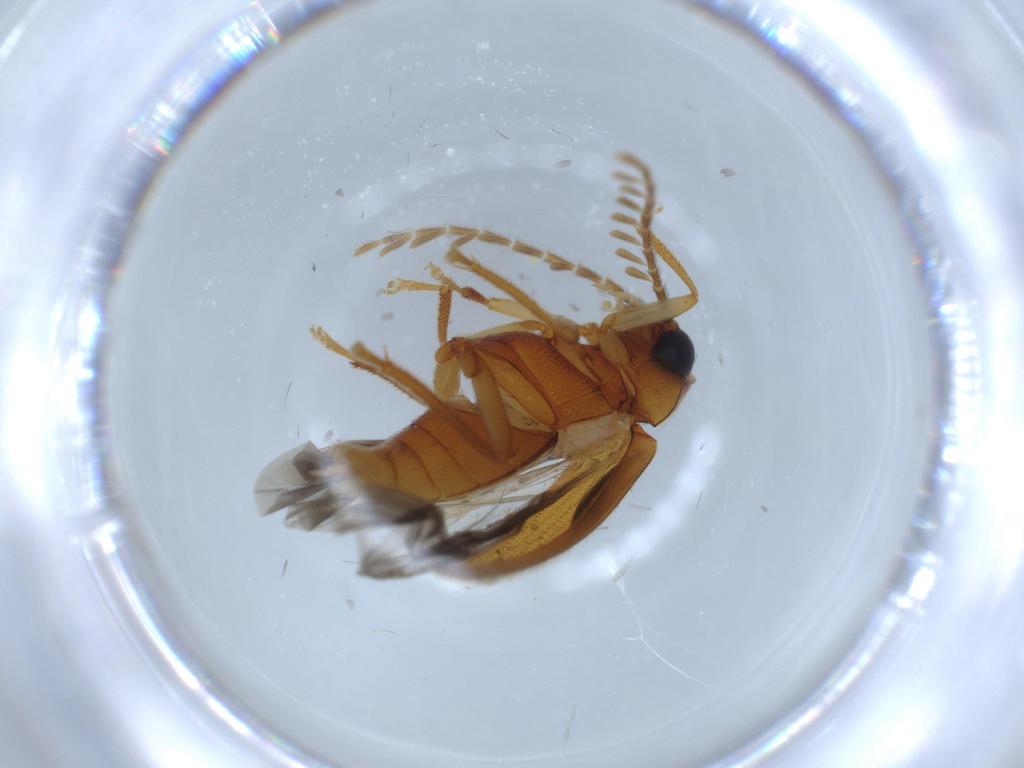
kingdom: Animalia
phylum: Arthropoda
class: Insecta
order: Coleoptera
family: Ptilodactylidae
